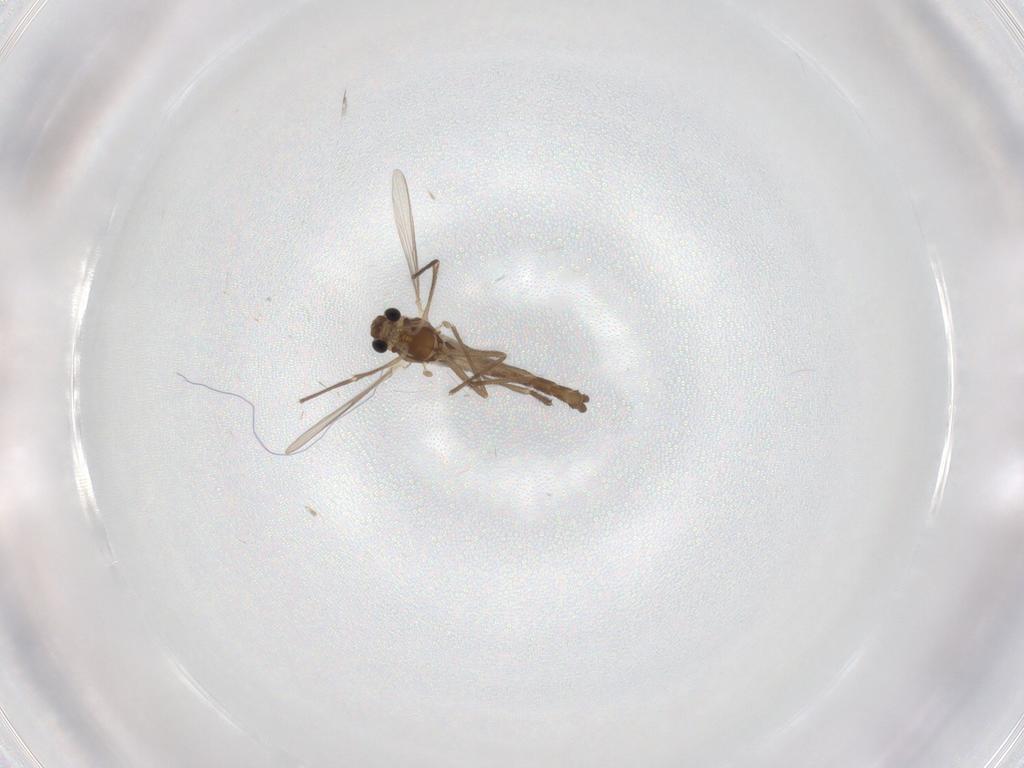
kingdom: Animalia
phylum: Arthropoda
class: Insecta
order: Diptera
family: Chironomidae
